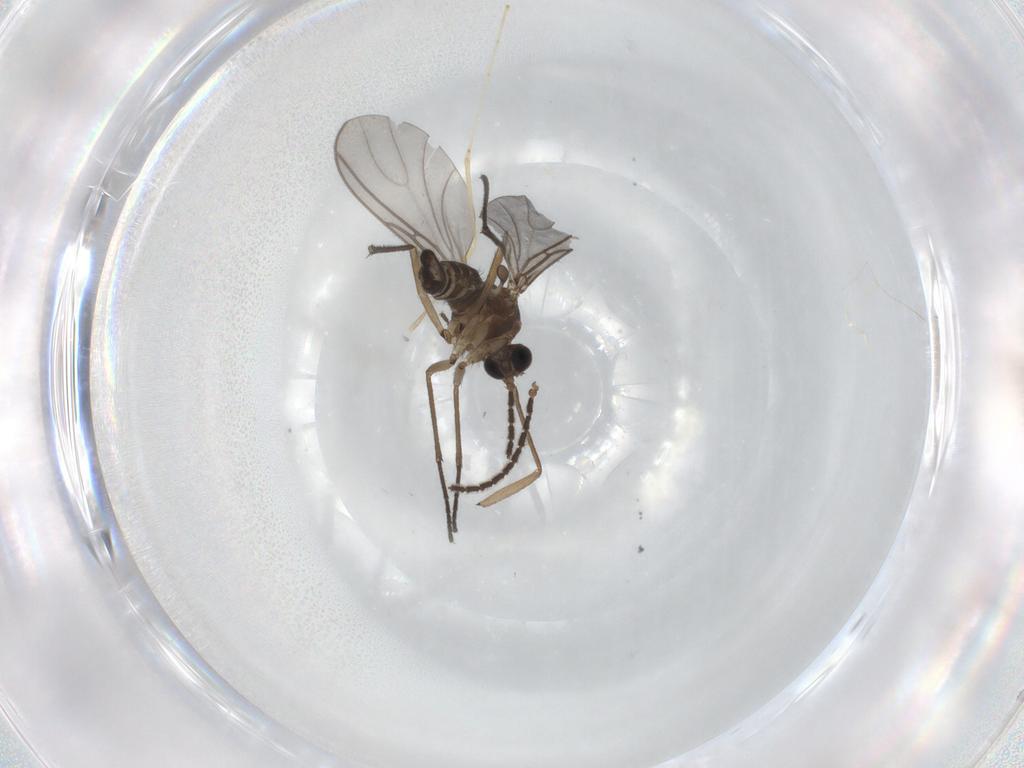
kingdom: Animalia
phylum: Arthropoda
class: Insecta
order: Diptera
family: Sciaridae
